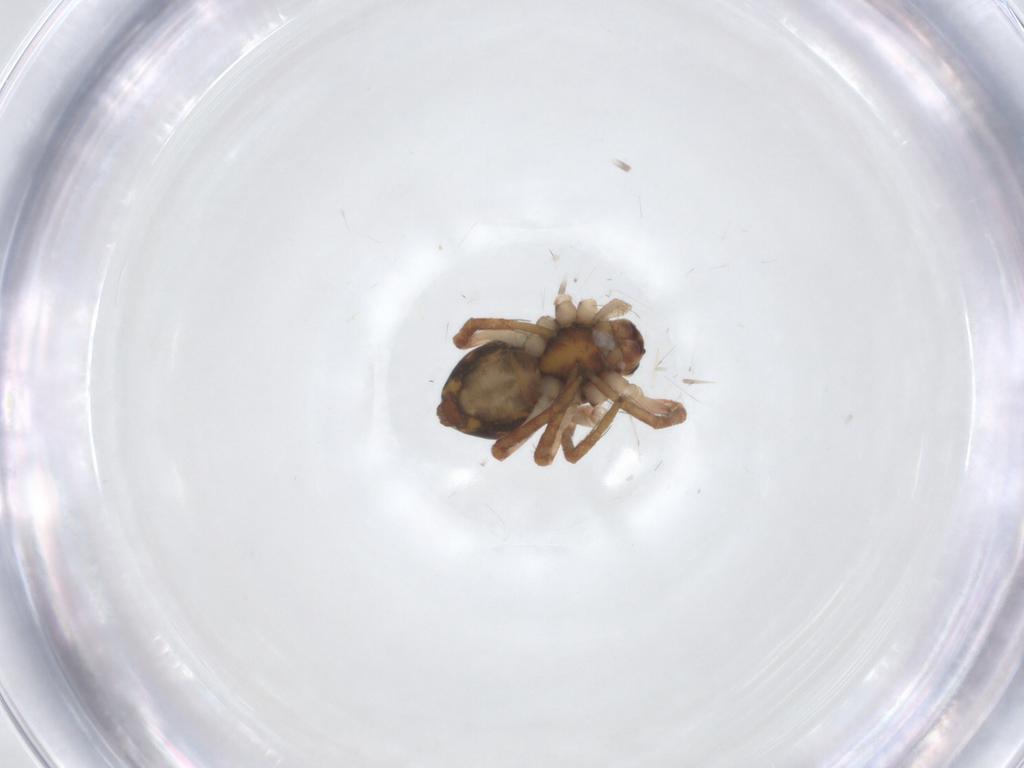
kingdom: Animalia
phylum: Arthropoda
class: Arachnida
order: Araneae
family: Pisauridae
